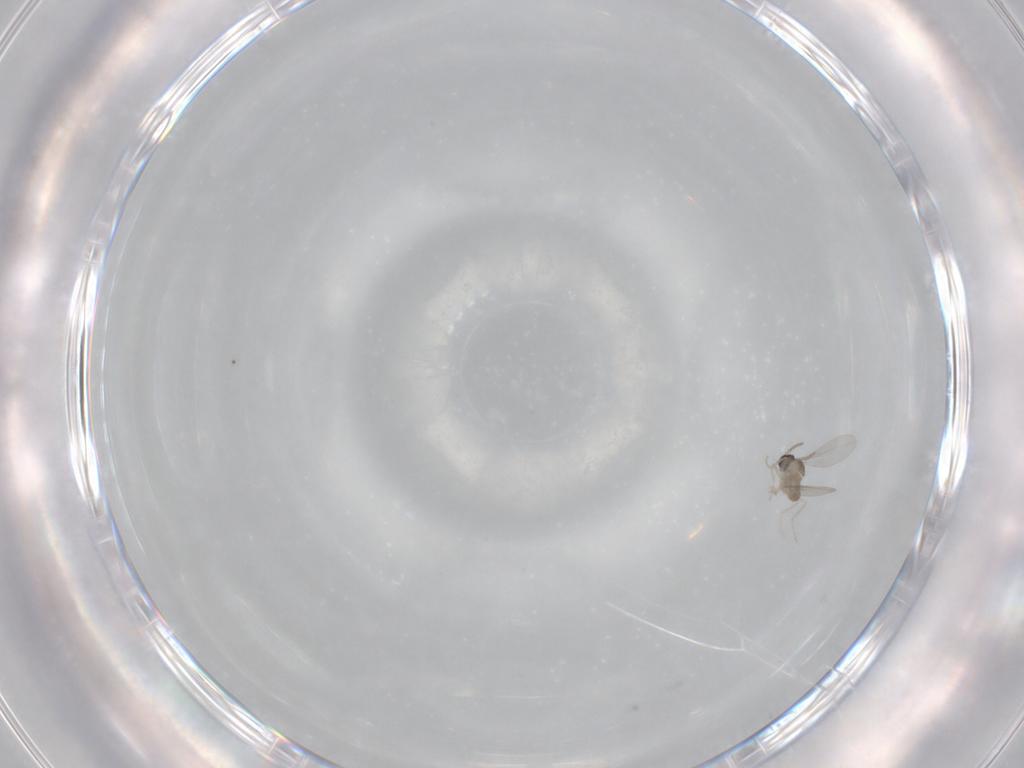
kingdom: Animalia
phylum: Arthropoda
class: Insecta
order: Diptera
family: Cecidomyiidae
